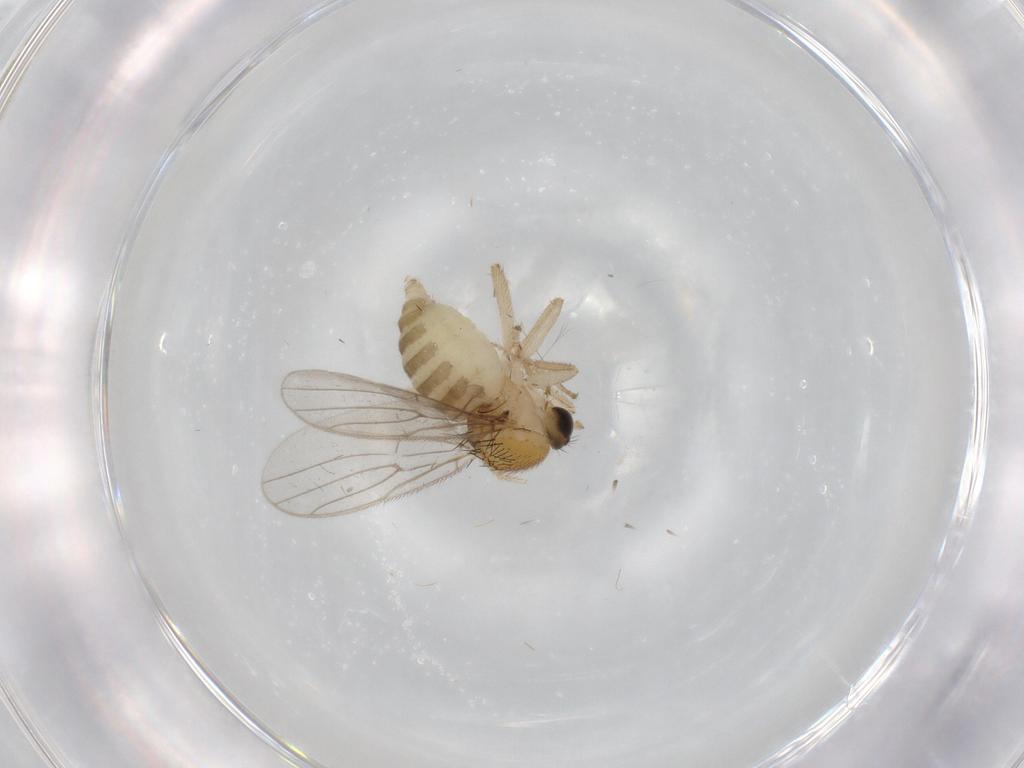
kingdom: Animalia
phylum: Arthropoda
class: Insecta
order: Diptera
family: Hybotidae
